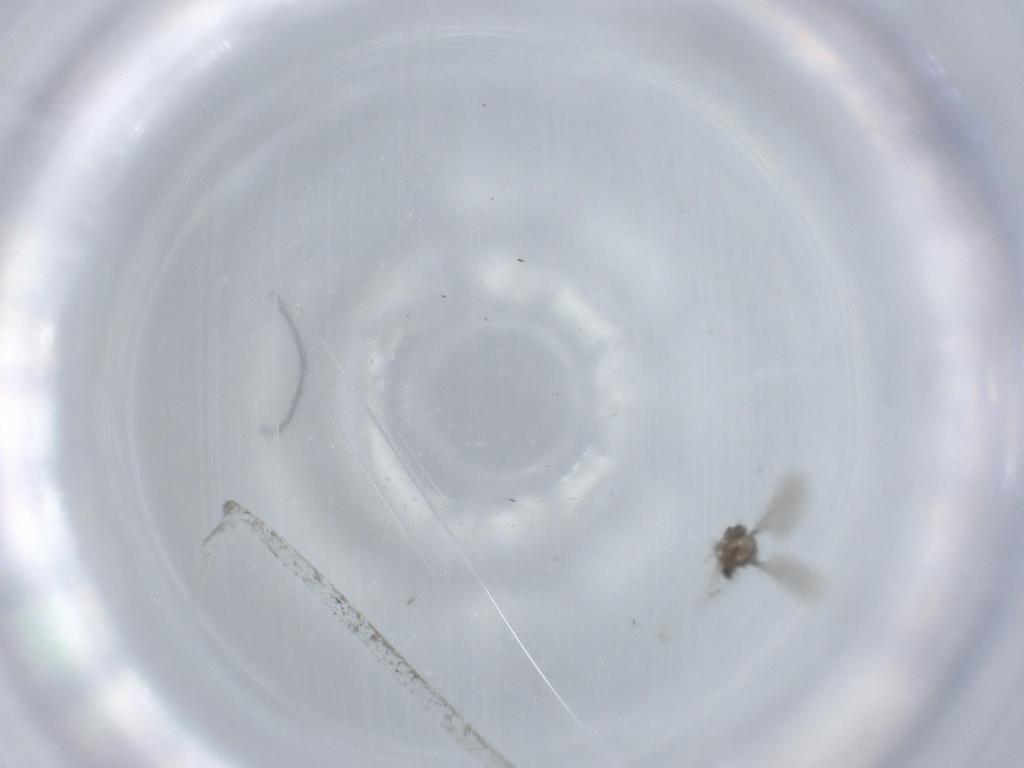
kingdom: Animalia
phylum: Arthropoda
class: Insecta
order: Diptera
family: Cecidomyiidae
